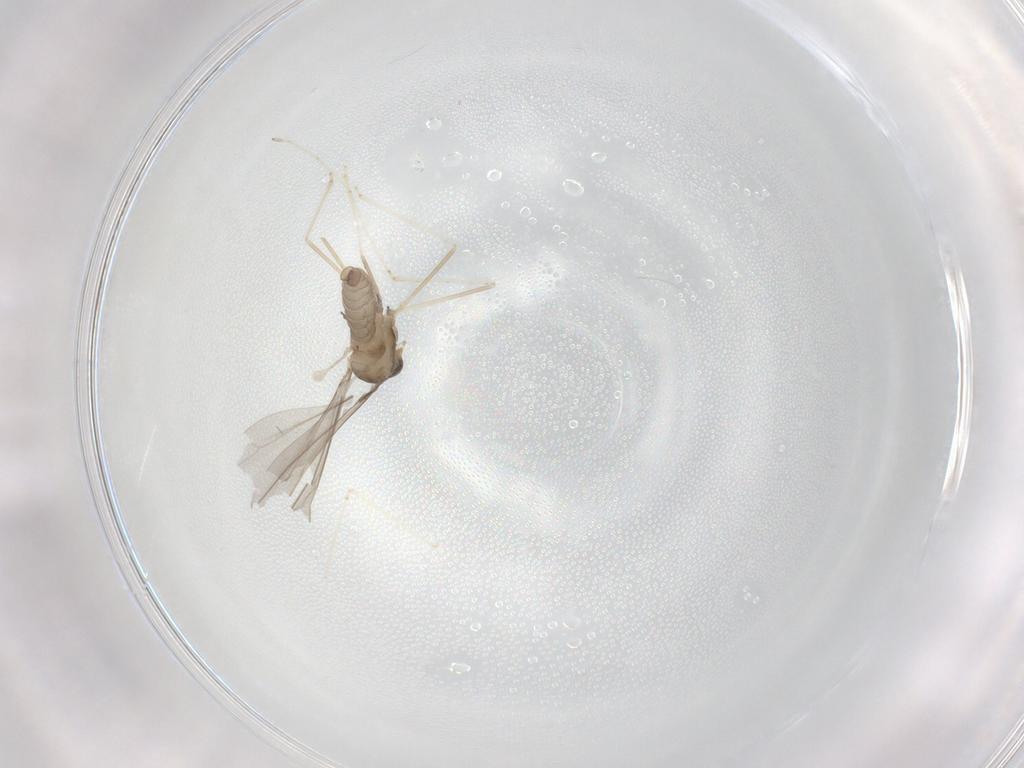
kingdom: Animalia
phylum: Arthropoda
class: Insecta
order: Diptera
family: Cecidomyiidae
